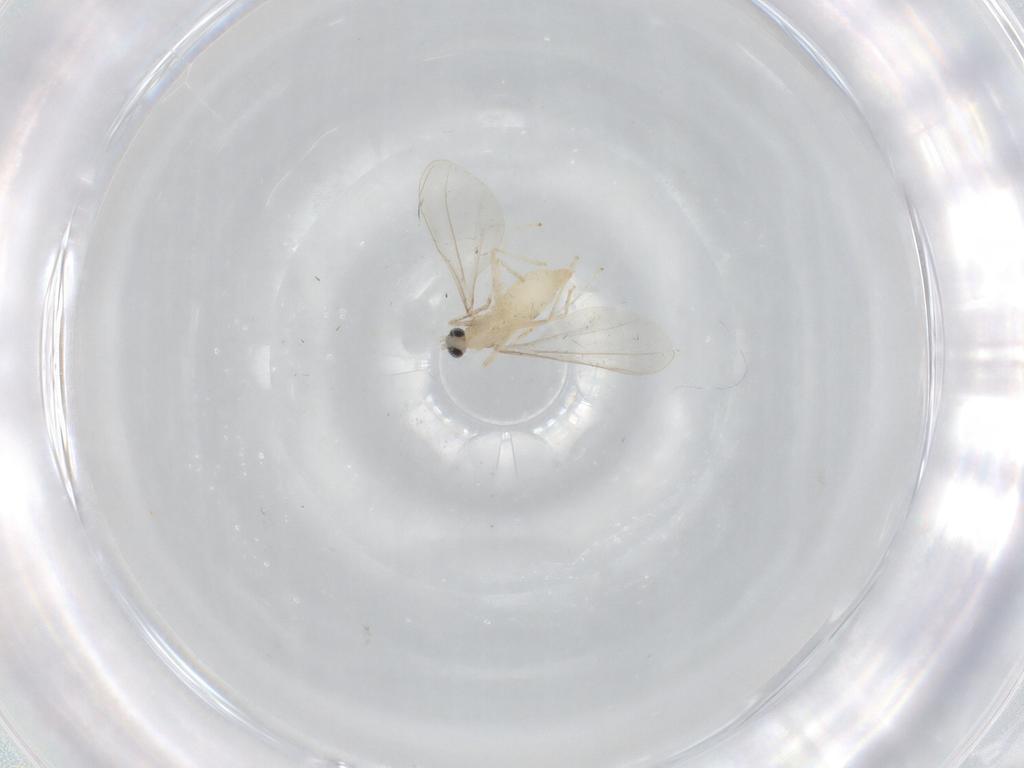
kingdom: Animalia
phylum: Arthropoda
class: Insecta
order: Diptera
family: Cecidomyiidae
